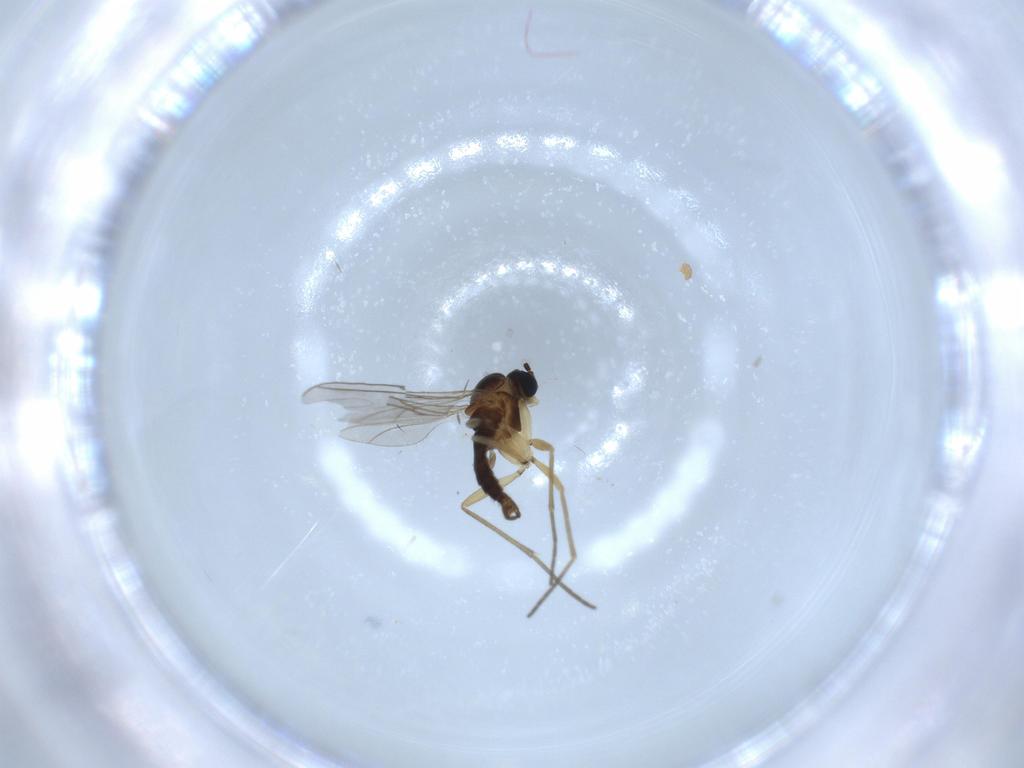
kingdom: Animalia
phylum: Arthropoda
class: Insecta
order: Diptera
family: Cecidomyiidae
